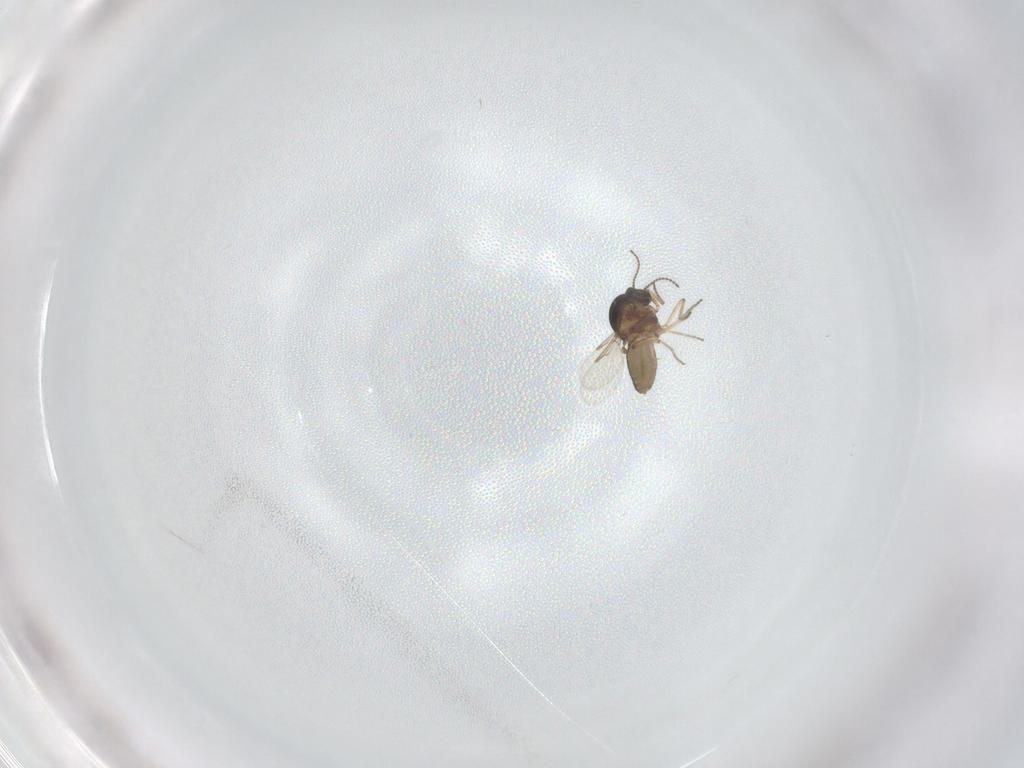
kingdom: Animalia
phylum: Arthropoda
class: Insecta
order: Diptera
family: Ceratopogonidae
